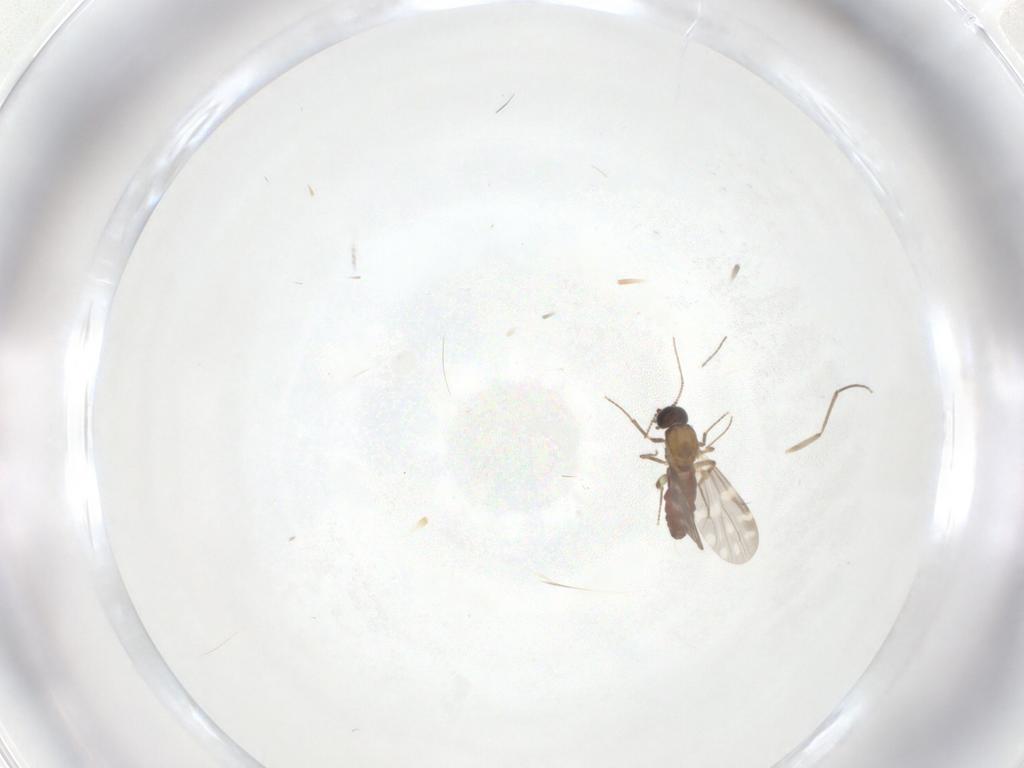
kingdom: Animalia
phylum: Arthropoda
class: Insecta
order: Diptera
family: Chironomidae
